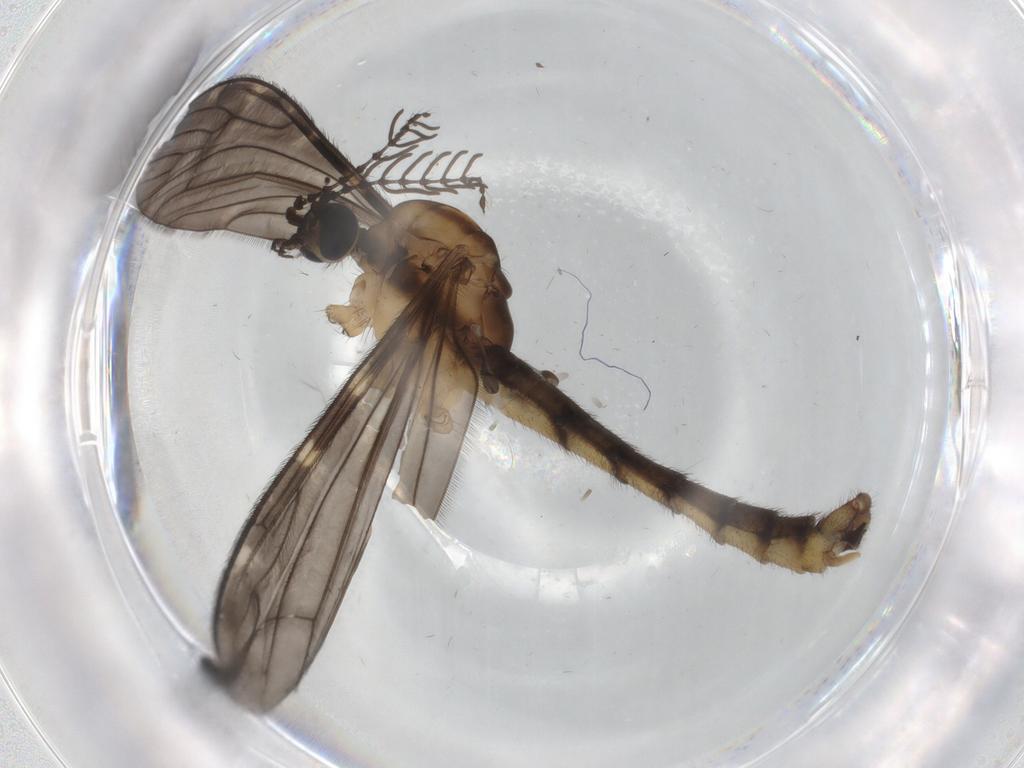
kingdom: Animalia
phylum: Arthropoda
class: Insecta
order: Diptera
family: Limoniidae
